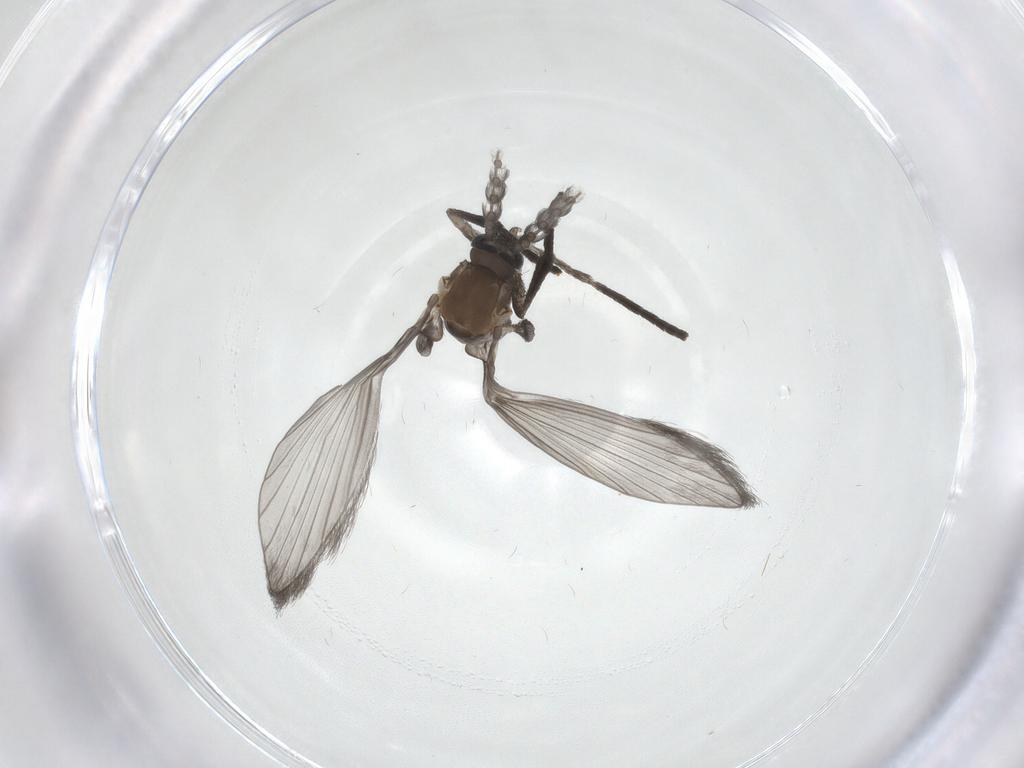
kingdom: Animalia
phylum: Arthropoda
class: Insecta
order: Diptera
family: Psychodidae
